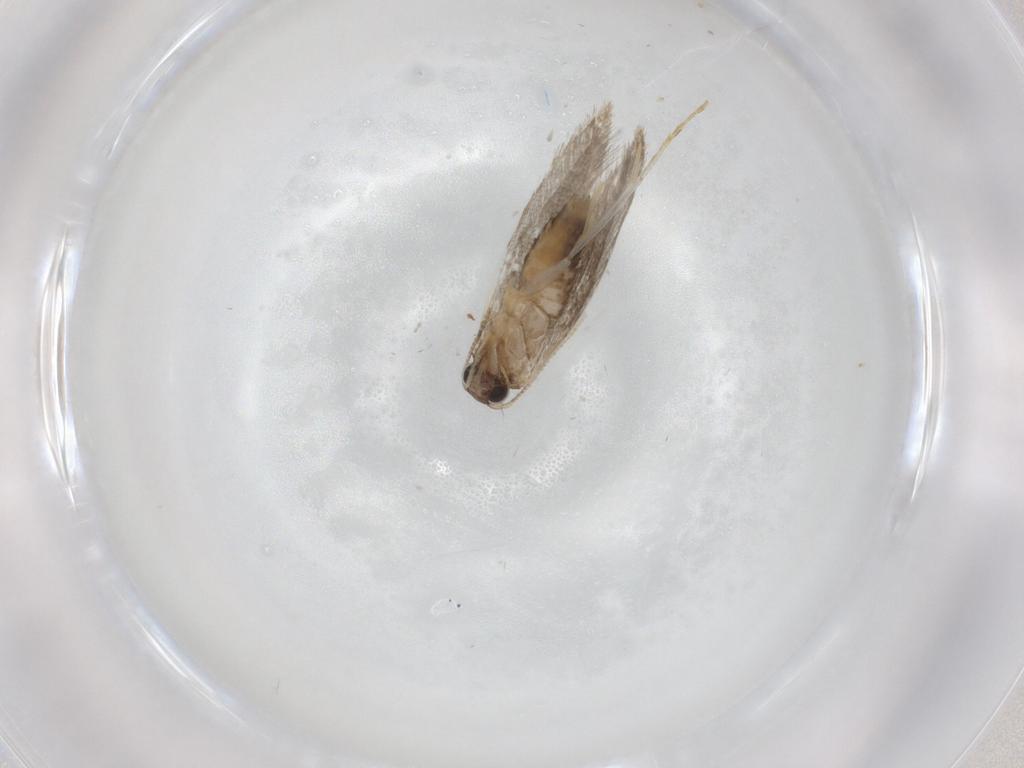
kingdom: Animalia
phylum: Arthropoda
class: Insecta
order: Lepidoptera
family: Tineidae
